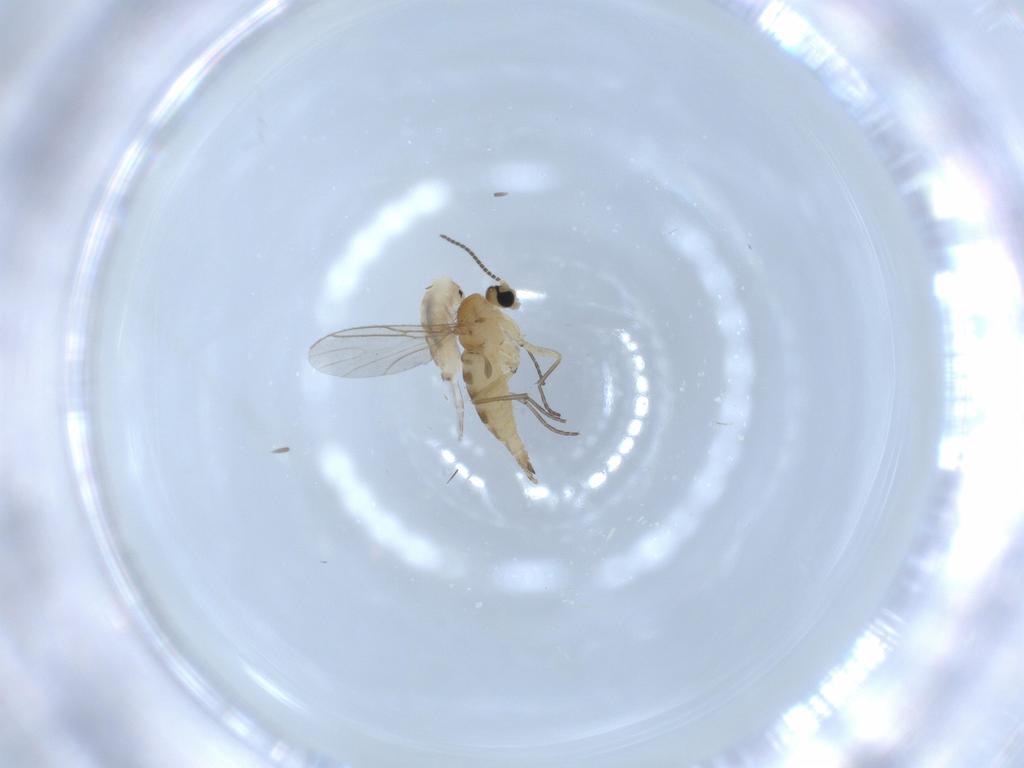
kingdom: Animalia
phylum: Arthropoda
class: Insecta
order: Diptera
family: Sciaridae
